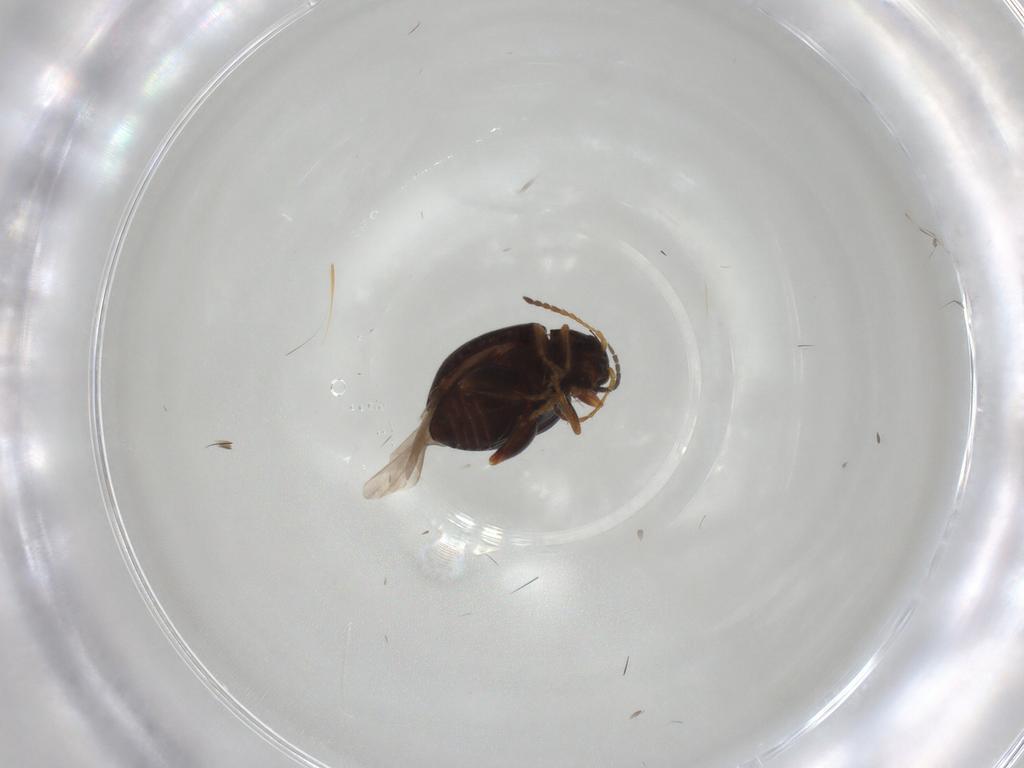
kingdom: Animalia
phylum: Arthropoda
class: Insecta
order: Coleoptera
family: Chrysomelidae
